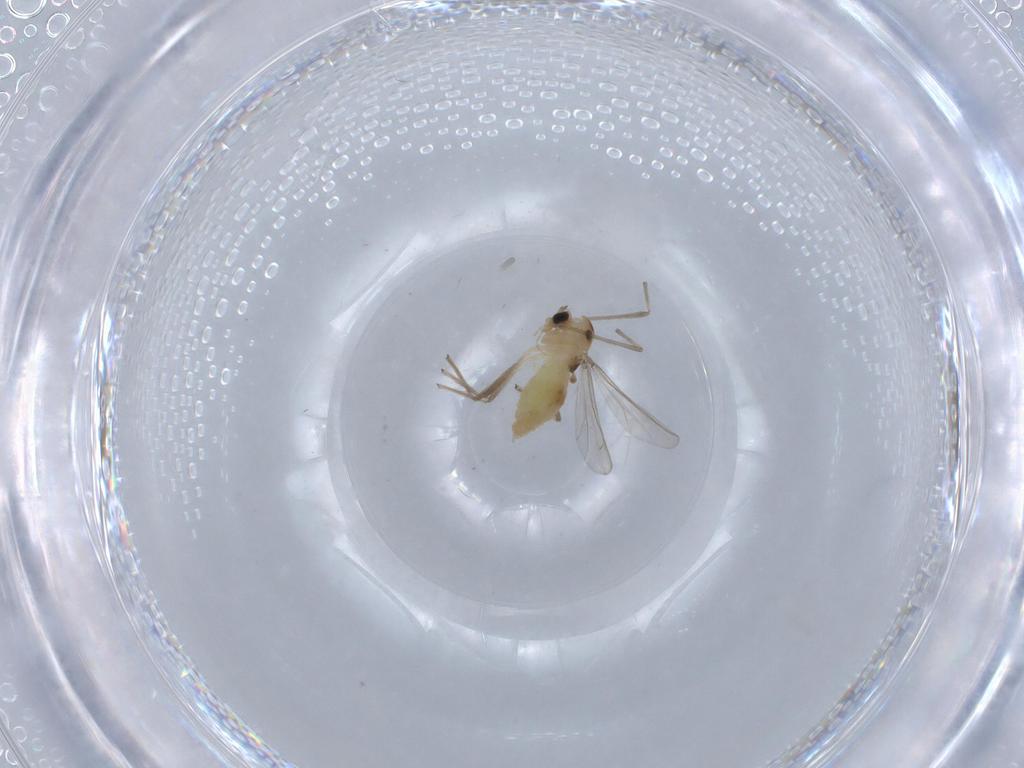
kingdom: Animalia
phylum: Arthropoda
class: Insecta
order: Diptera
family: Chironomidae
